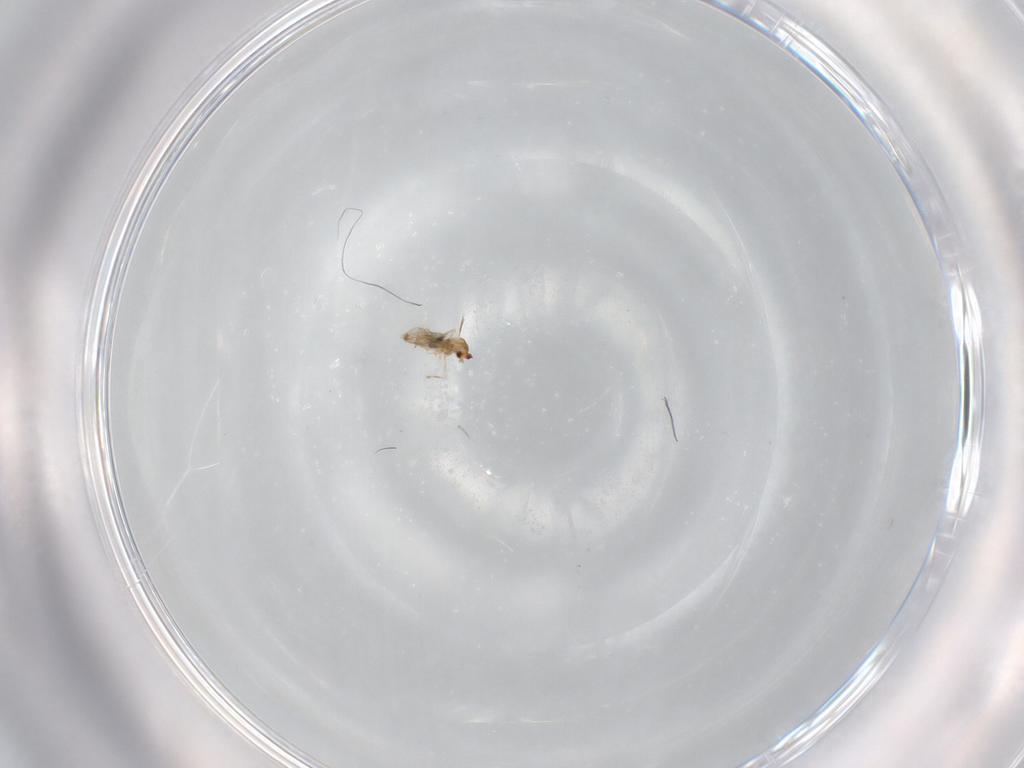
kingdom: Animalia
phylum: Arthropoda
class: Insecta
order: Diptera
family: Cecidomyiidae
